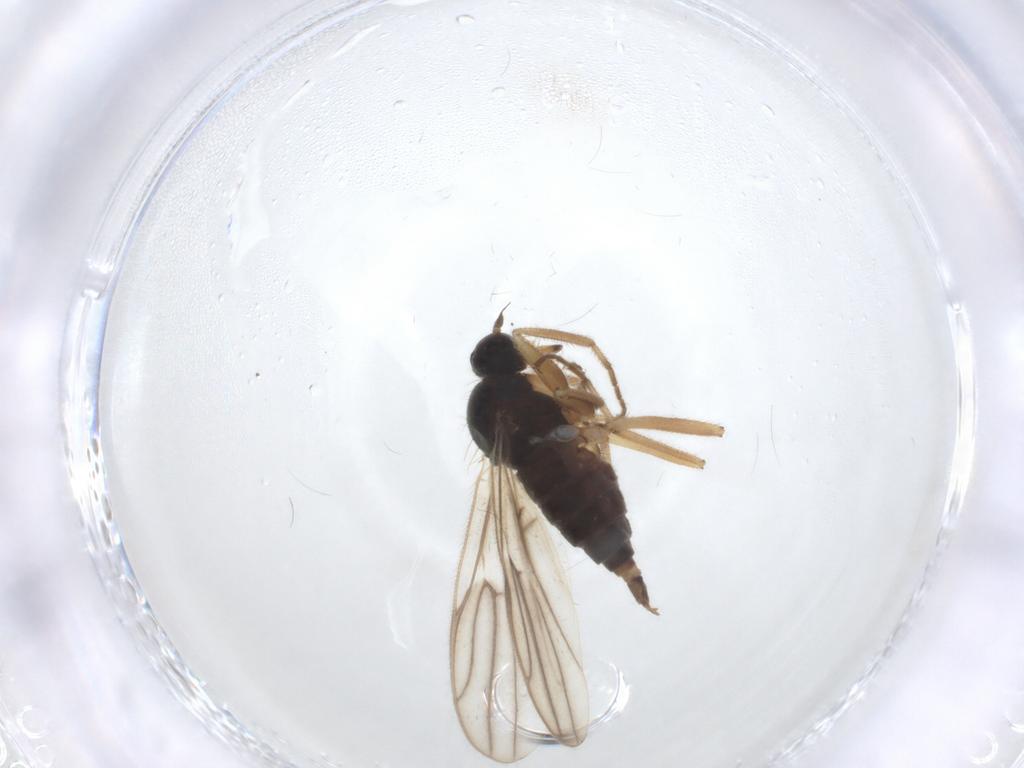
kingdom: Animalia
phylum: Arthropoda
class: Insecta
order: Diptera
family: Hybotidae
